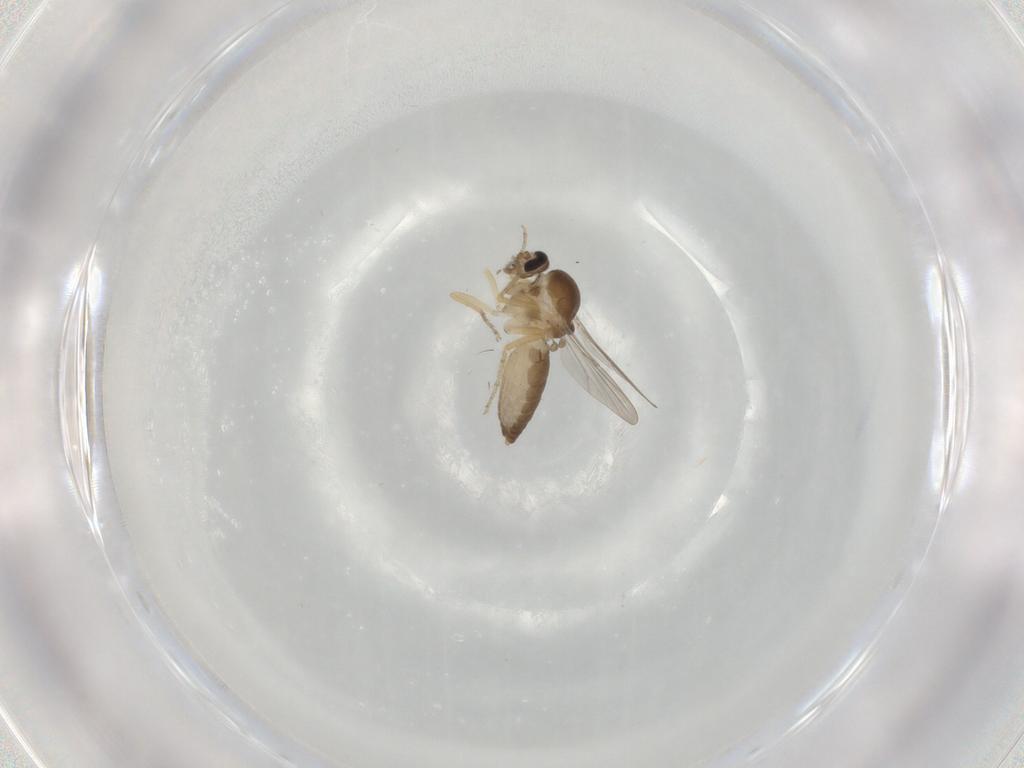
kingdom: Animalia
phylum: Arthropoda
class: Insecta
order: Diptera
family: Ceratopogonidae
